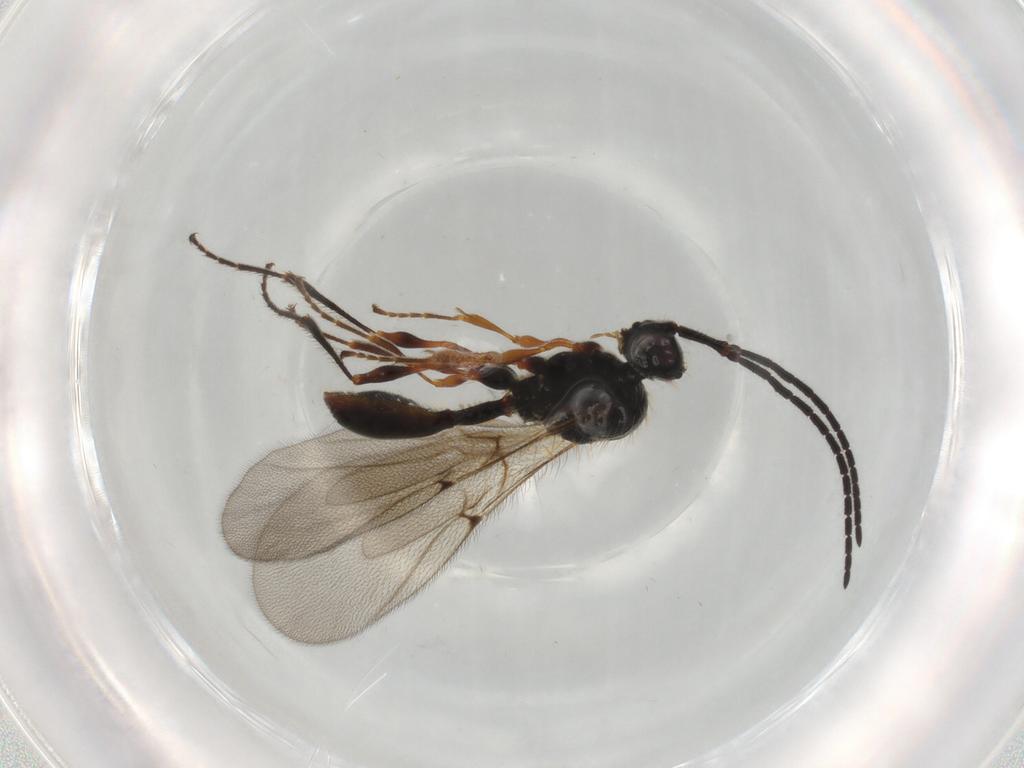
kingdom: Animalia
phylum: Arthropoda
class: Insecta
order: Hymenoptera
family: Diapriidae
